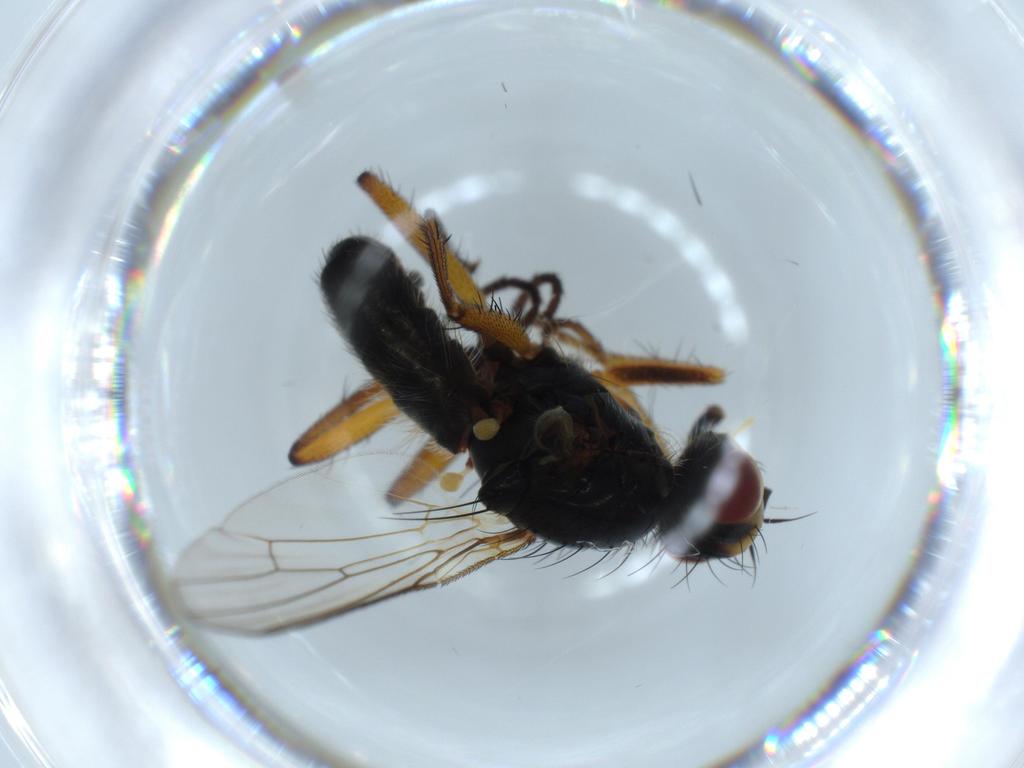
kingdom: Animalia
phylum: Arthropoda
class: Insecta
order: Diptera
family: Scathophagidae
